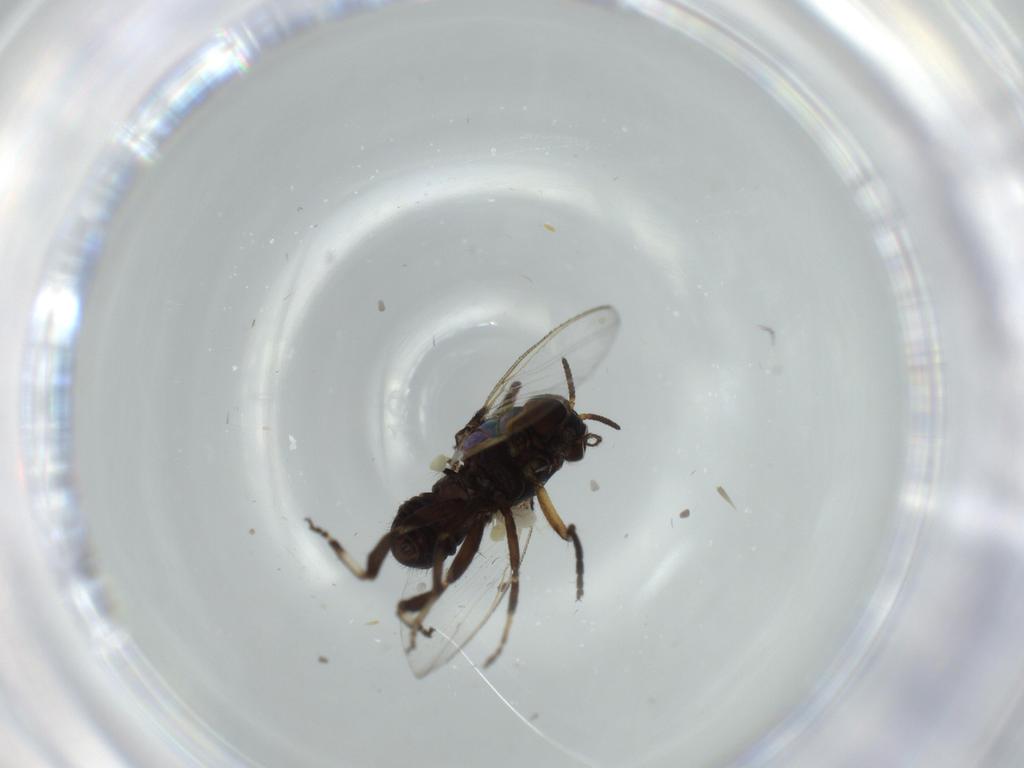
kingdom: Animalia
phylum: Arthropoda
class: Insecta
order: Diptera
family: Simuliidae
